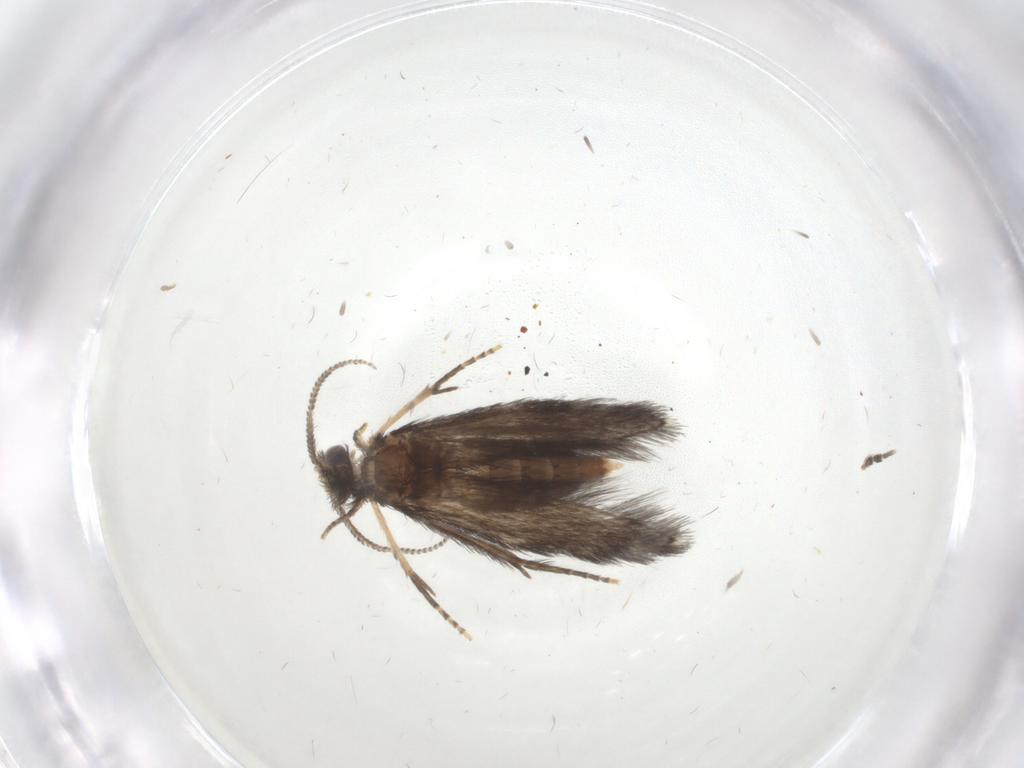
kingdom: Animalia
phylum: Arthropoda
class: Insecta
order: Trichoptera
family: Hydroptilidae
